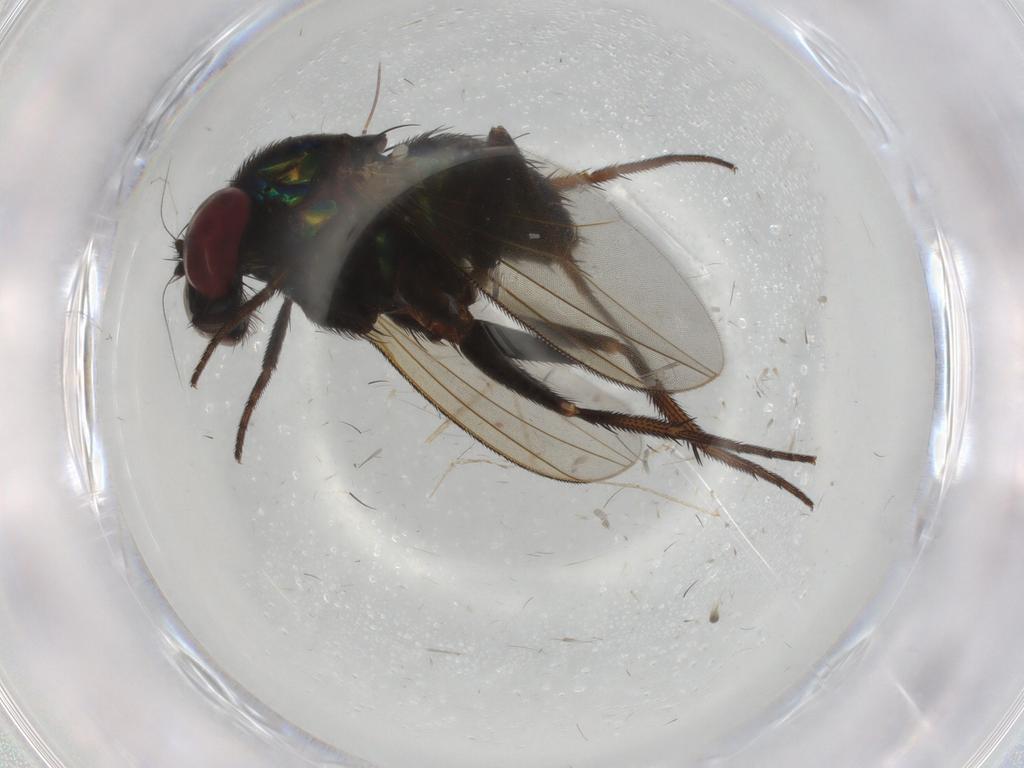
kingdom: Animalia
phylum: Arthropoda
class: Insecta
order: Diptera
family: Dolichopodidae
